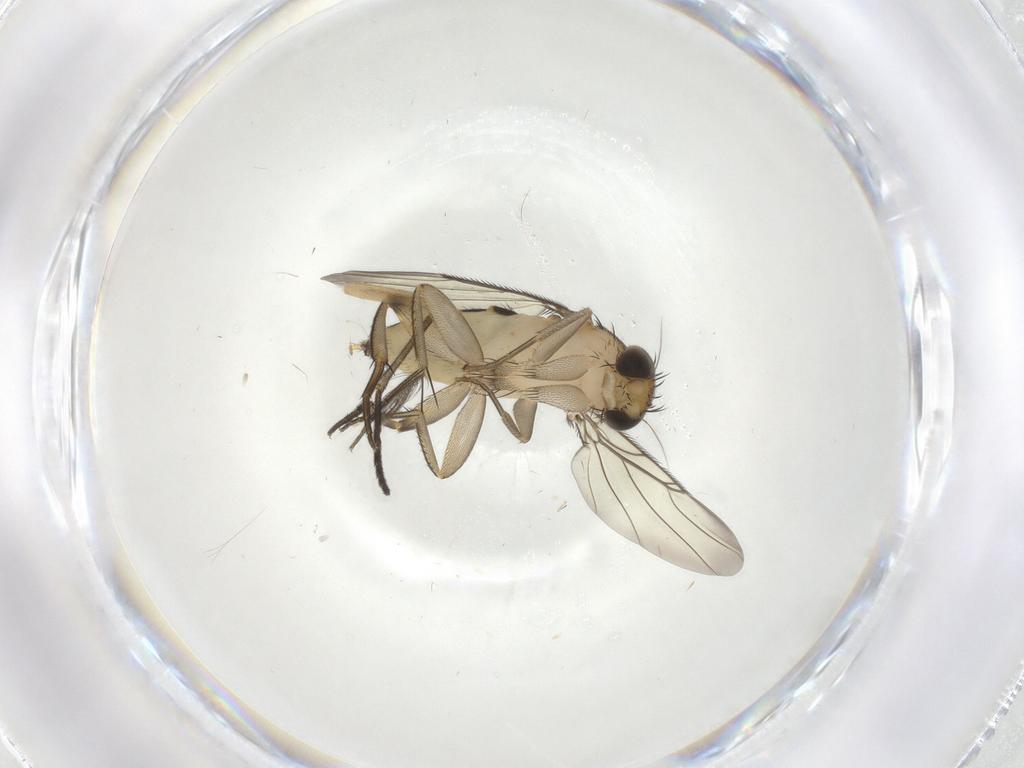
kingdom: Animalia
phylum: Arthropoda
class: Insecta
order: Diptera
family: Phoridae
